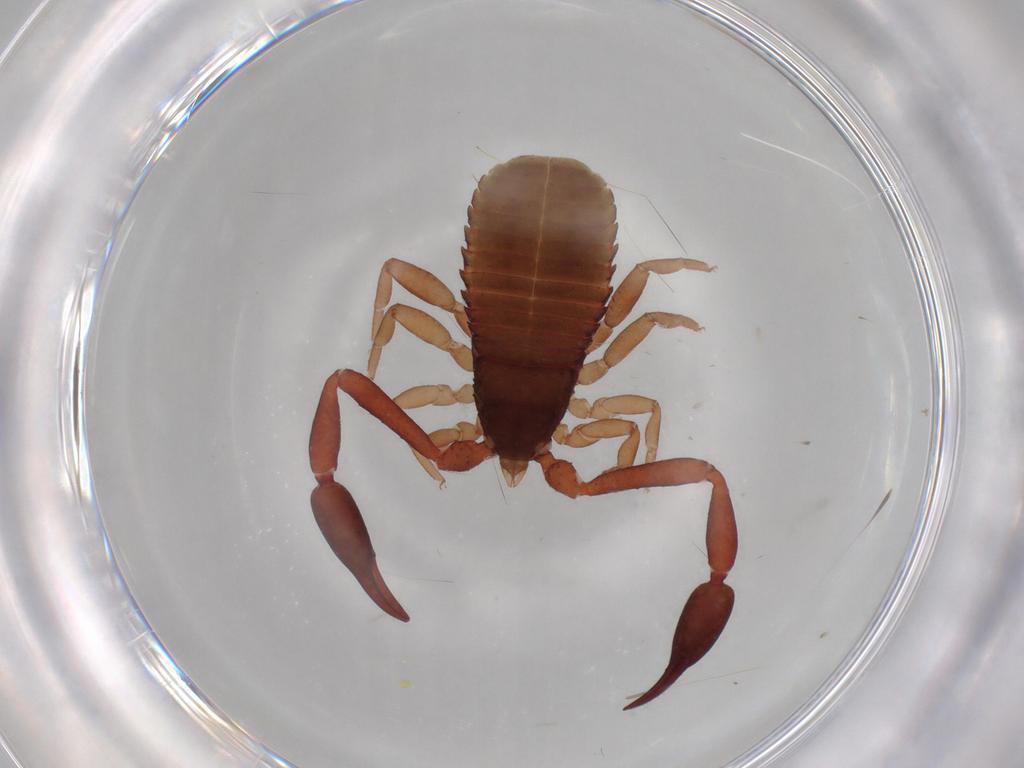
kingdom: Animalia
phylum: Arthropoda
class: Arachnida
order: Pseudoscorpiones
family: Cheliferidae
